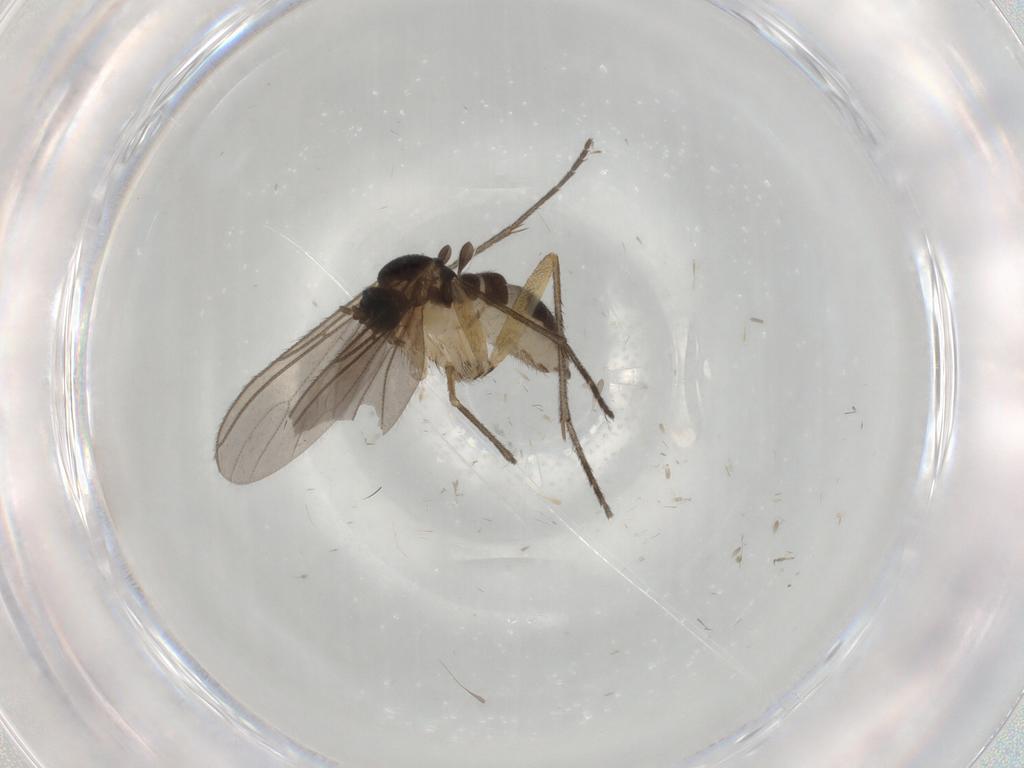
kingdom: Animalia
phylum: Arthropoda
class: Insecta
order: Diptera
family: Sciaridae
